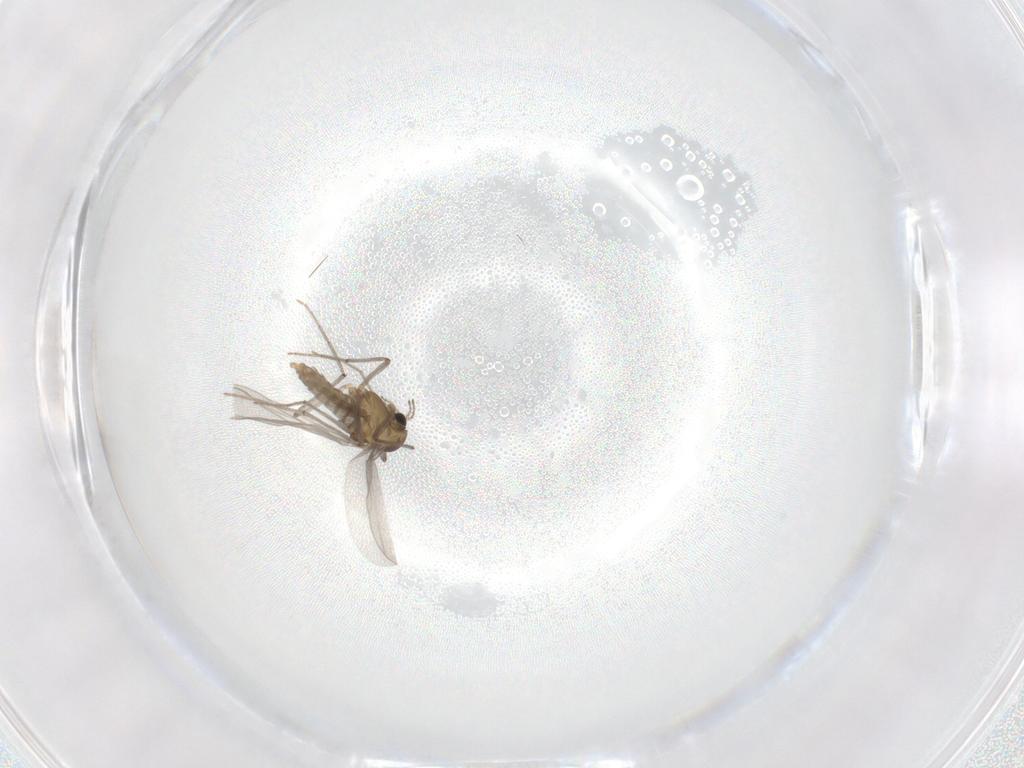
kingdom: Animalia
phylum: Arthropoda
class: Insecta
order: Diptera
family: Chironomidae
